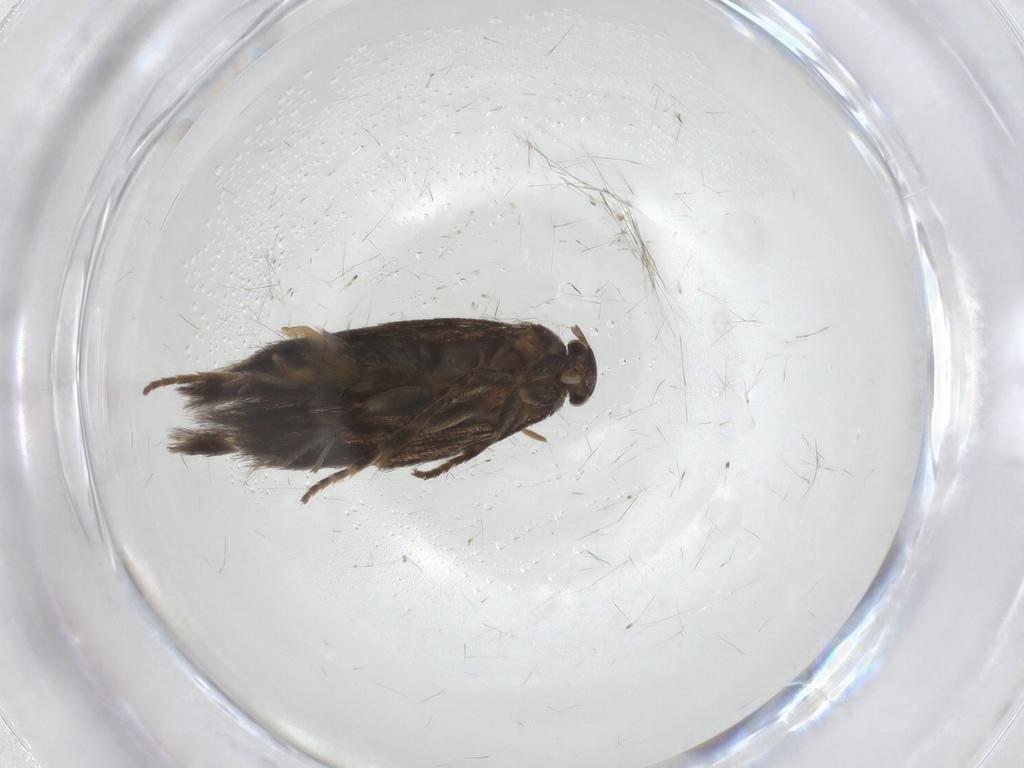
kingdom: Animalia
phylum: Arthropoda
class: Insecta
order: Lepidoptera
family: Elachistidae
